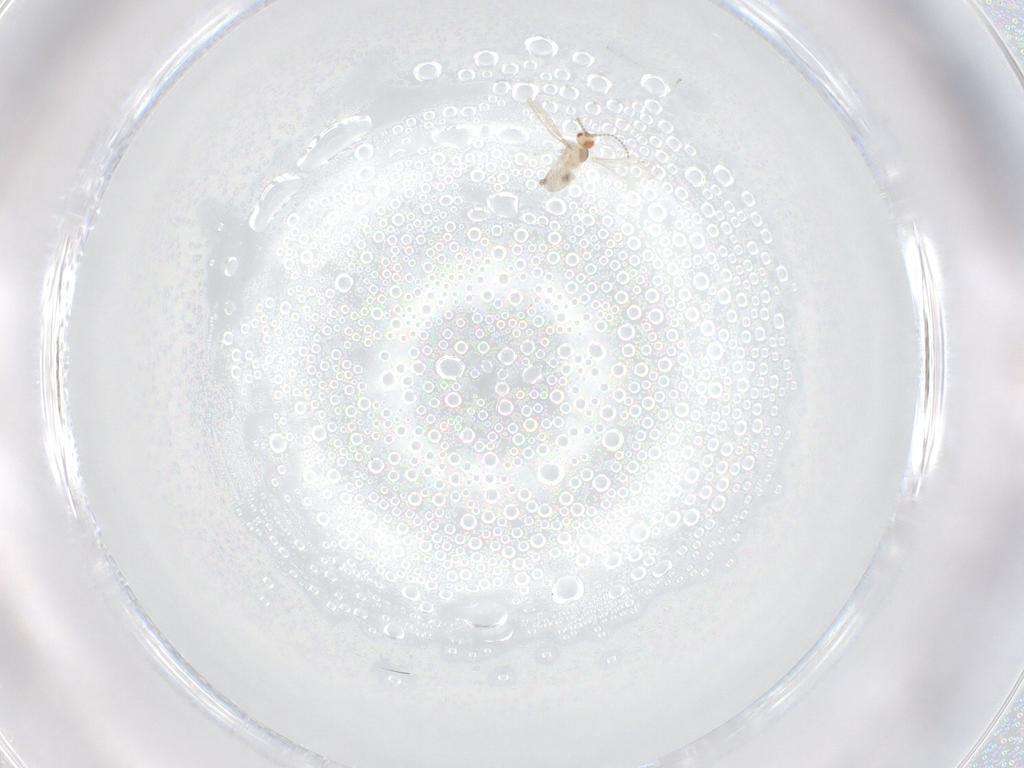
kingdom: Animalia
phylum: Arthropoda
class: Insecta
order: Diptera
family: Cecidomyiidae
